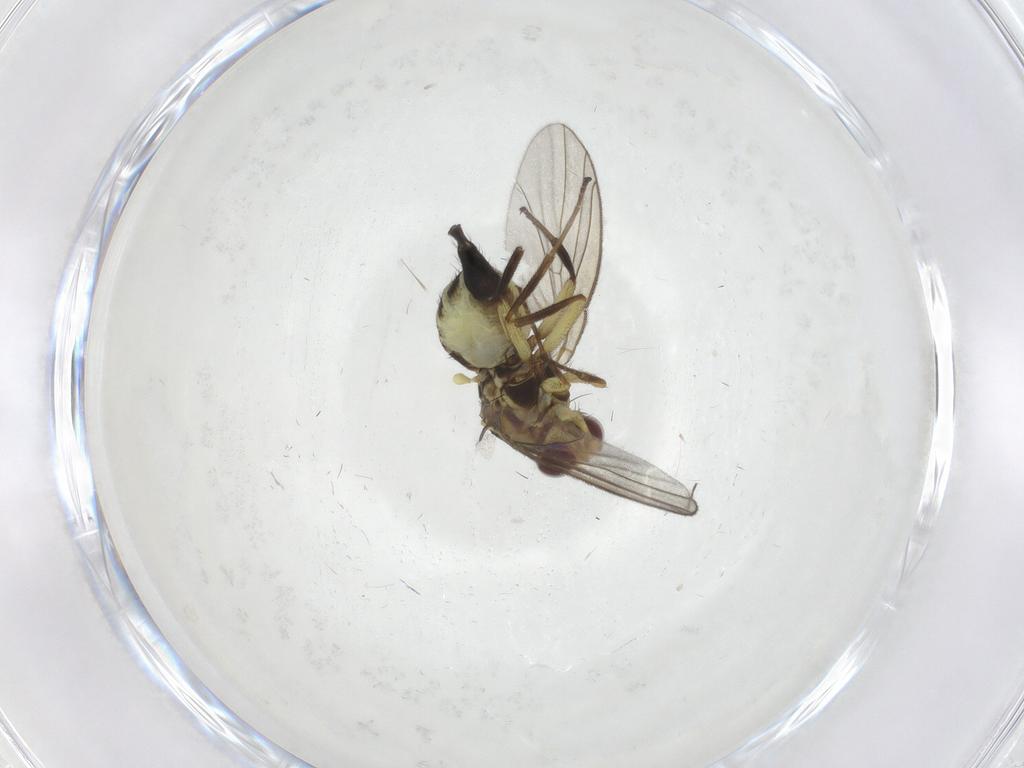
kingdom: Animalia
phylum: Arthropoda
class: Insecta
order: Diptera
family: Agromyzidae
